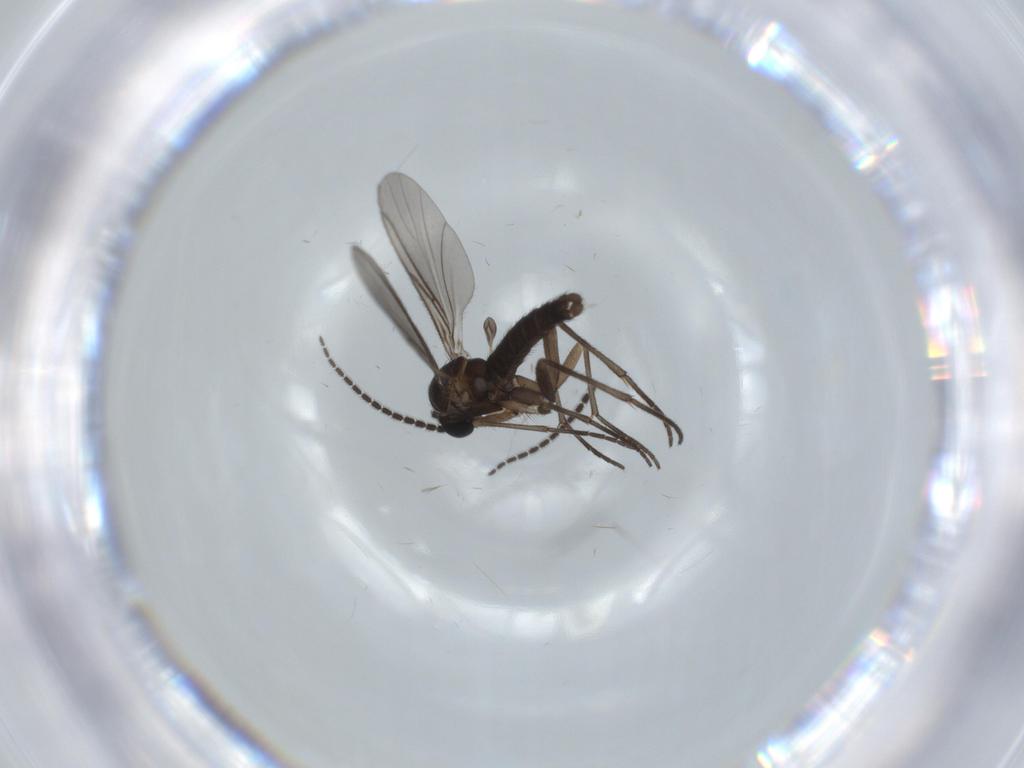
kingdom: Animalia
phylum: Arthropoda
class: Insecta
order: Diptera
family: Sciaridae
